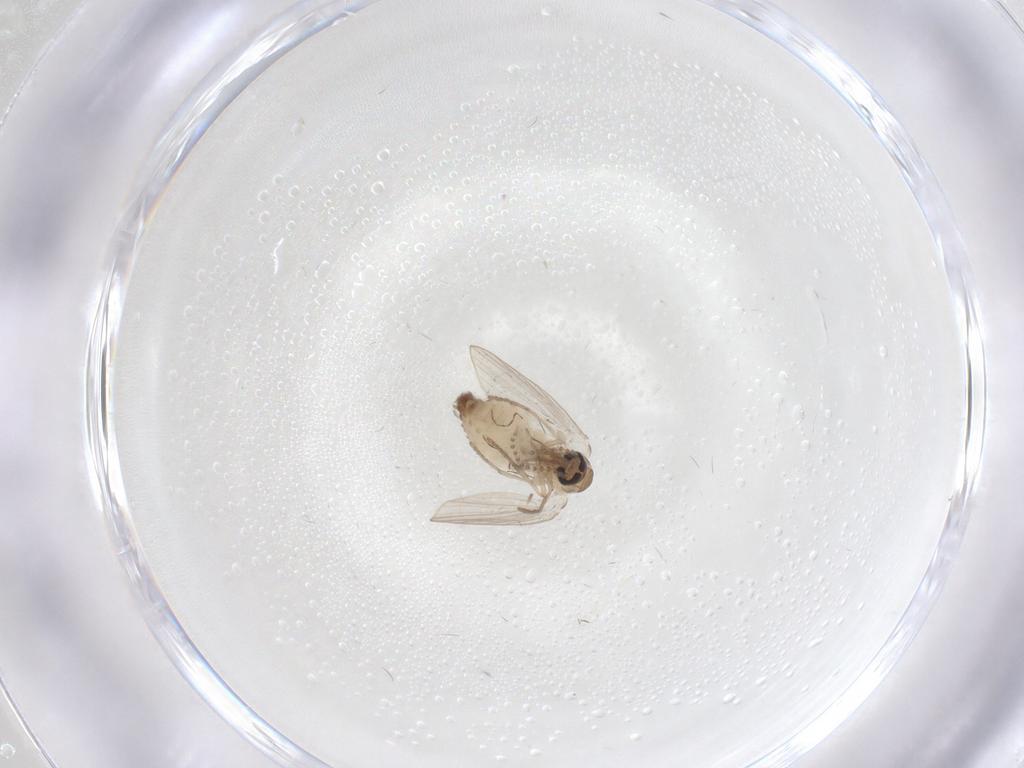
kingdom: Animalia
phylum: Arthropoda
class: Insecta
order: Diptera
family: Psychodidae
